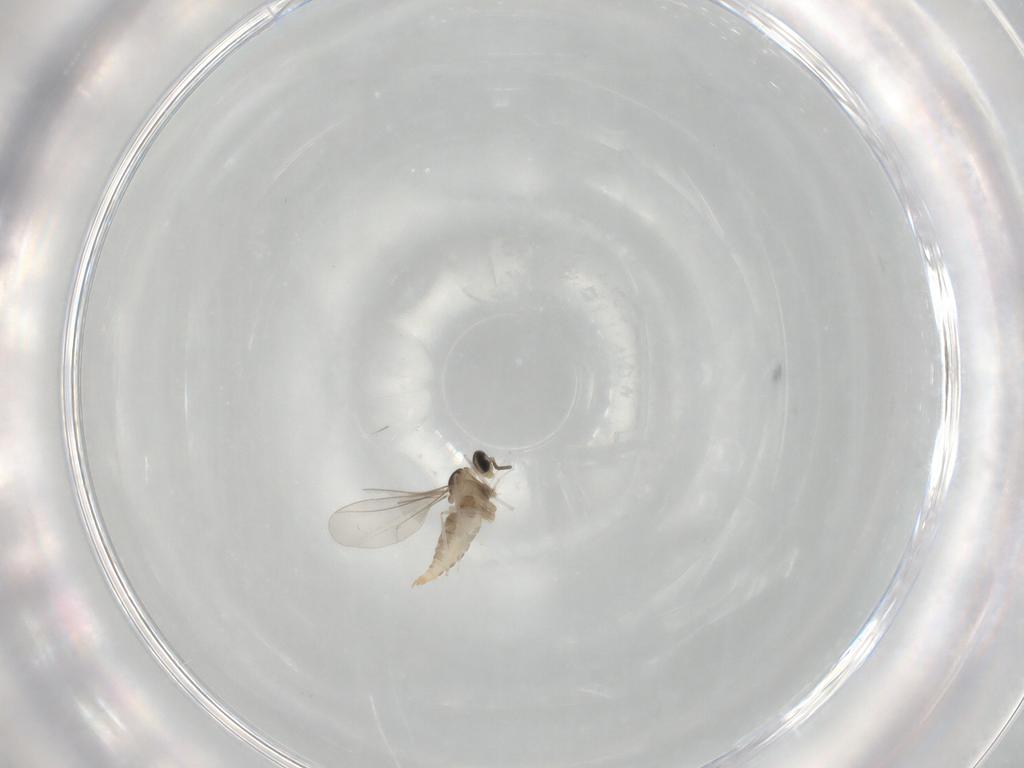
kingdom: Animalia
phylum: Arthropoda
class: Insecta
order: Diptera
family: Cecidomyiidae
